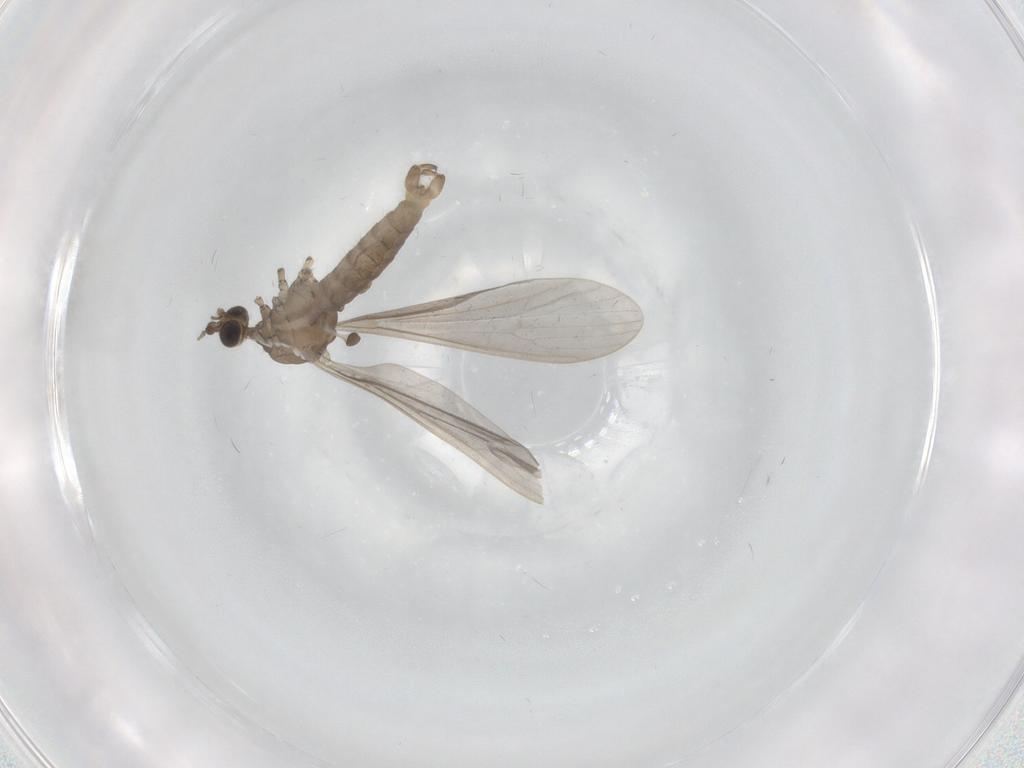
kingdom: Animalia
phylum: Arthropoda
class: Insecta
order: Diptera
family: Limoniidae
